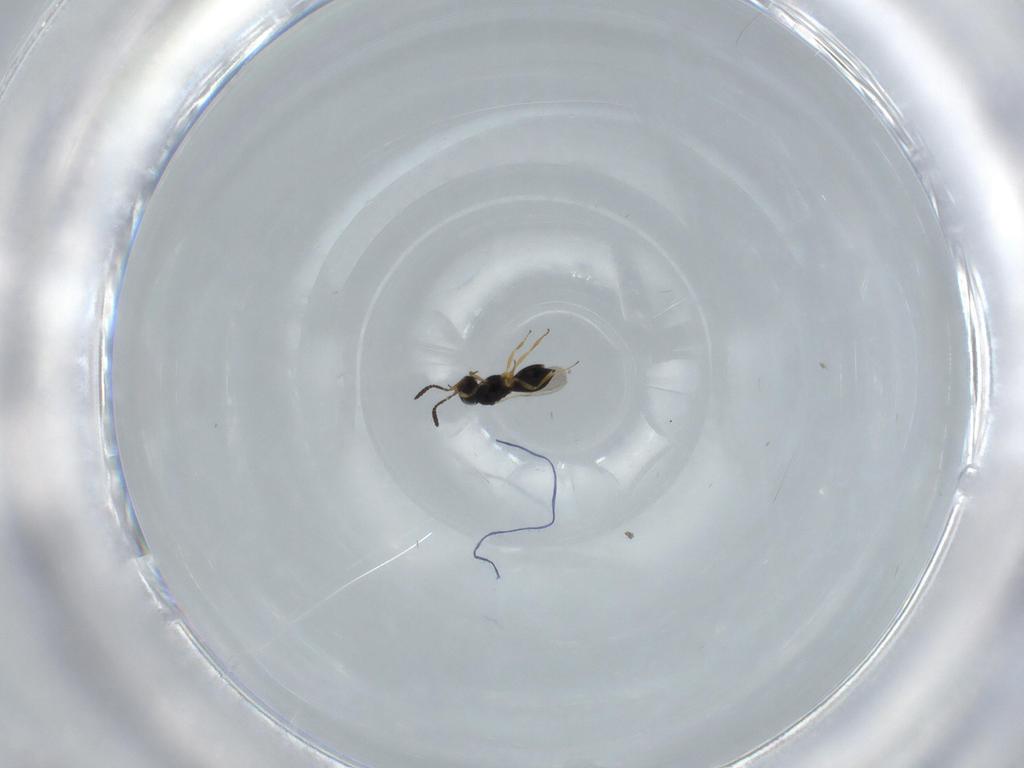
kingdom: Animalia
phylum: Arthropoda
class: Insecta
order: Hymenoptera
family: Scelionidae
